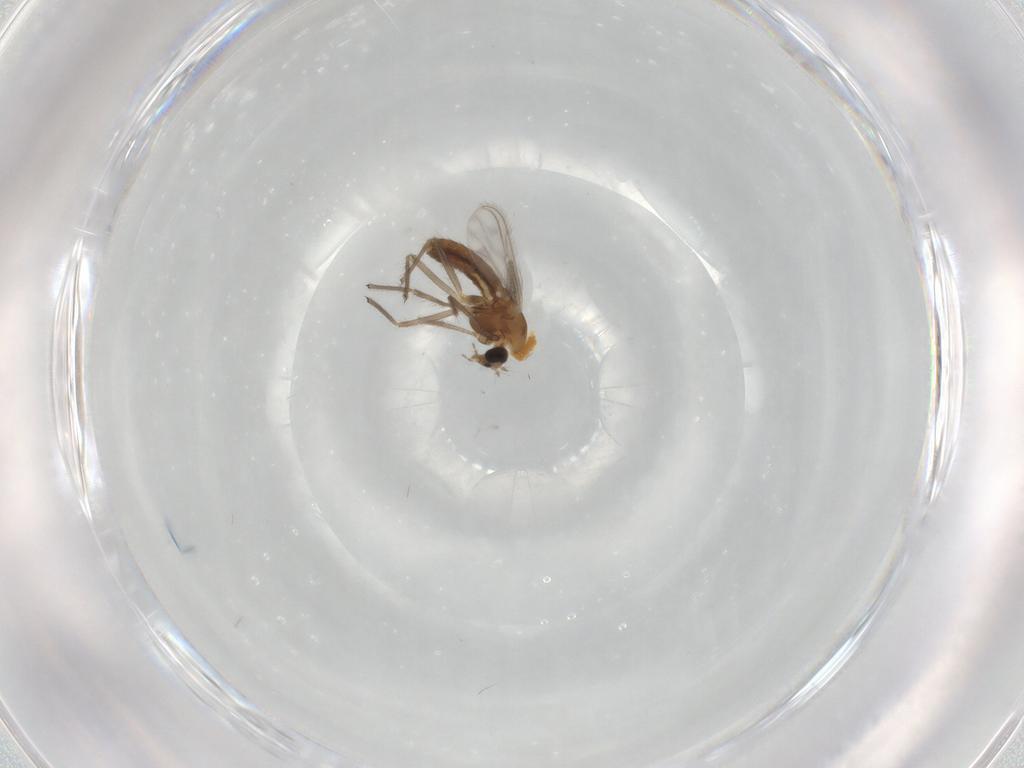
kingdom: Animalia
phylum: Arthropoda
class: Insecta
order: Diptera
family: Ceratopogonidae
